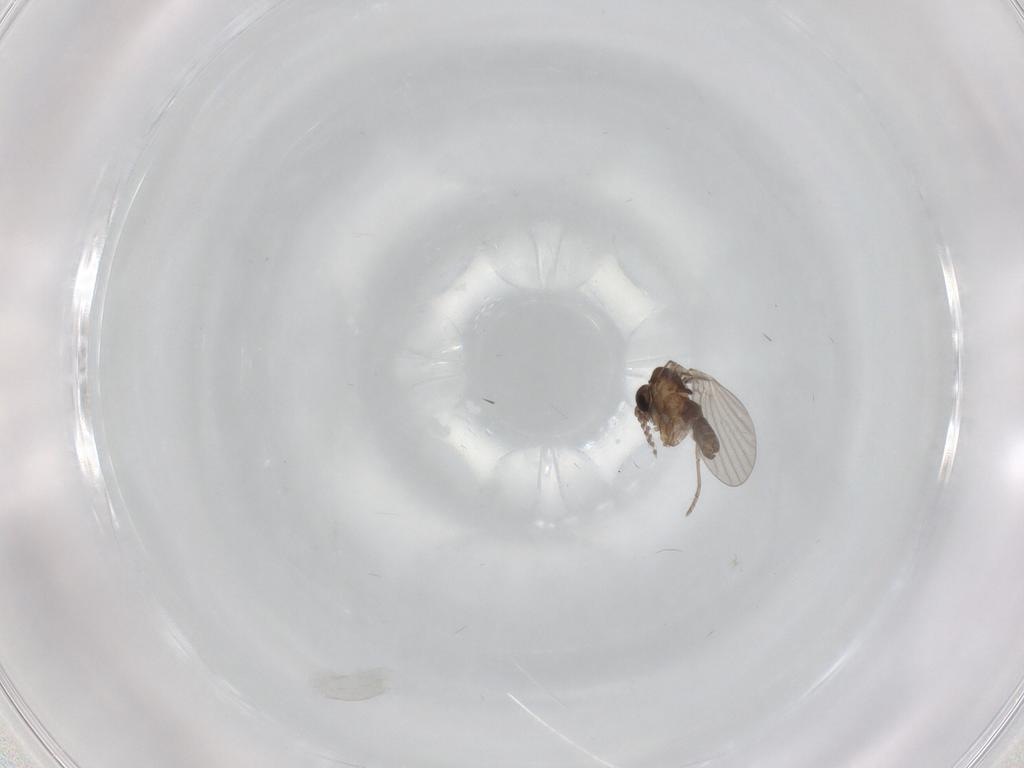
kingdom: Animalia
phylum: Arthropoda
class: Insecta
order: Diptera
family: Cecidomyiidae
